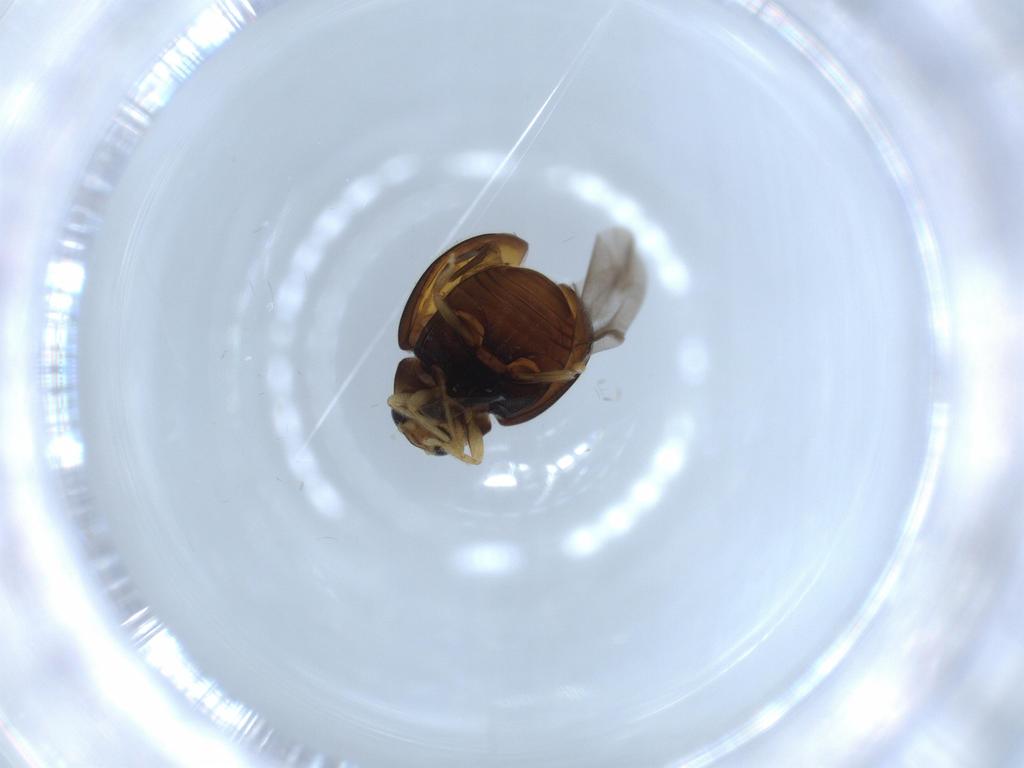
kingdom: Animalia
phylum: Arthropoda
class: Insecta
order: Coleoptera
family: Coccinellidae
